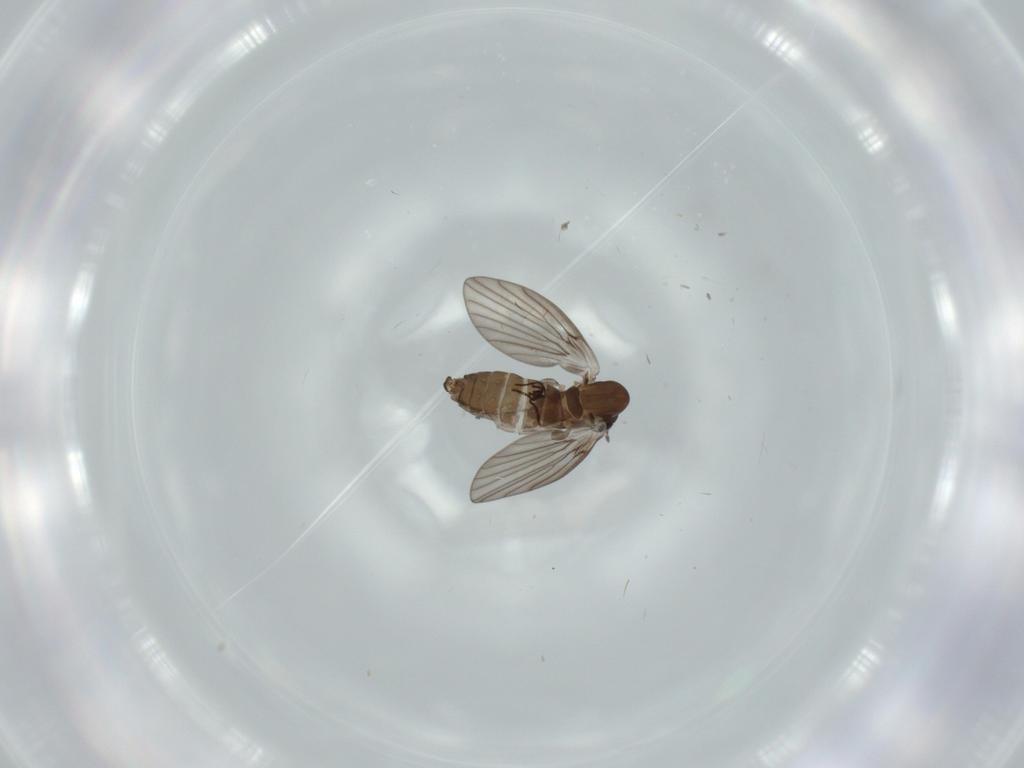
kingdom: Animalia
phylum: Arthropoda
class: Insecta
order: Diptera
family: Psychodidae
